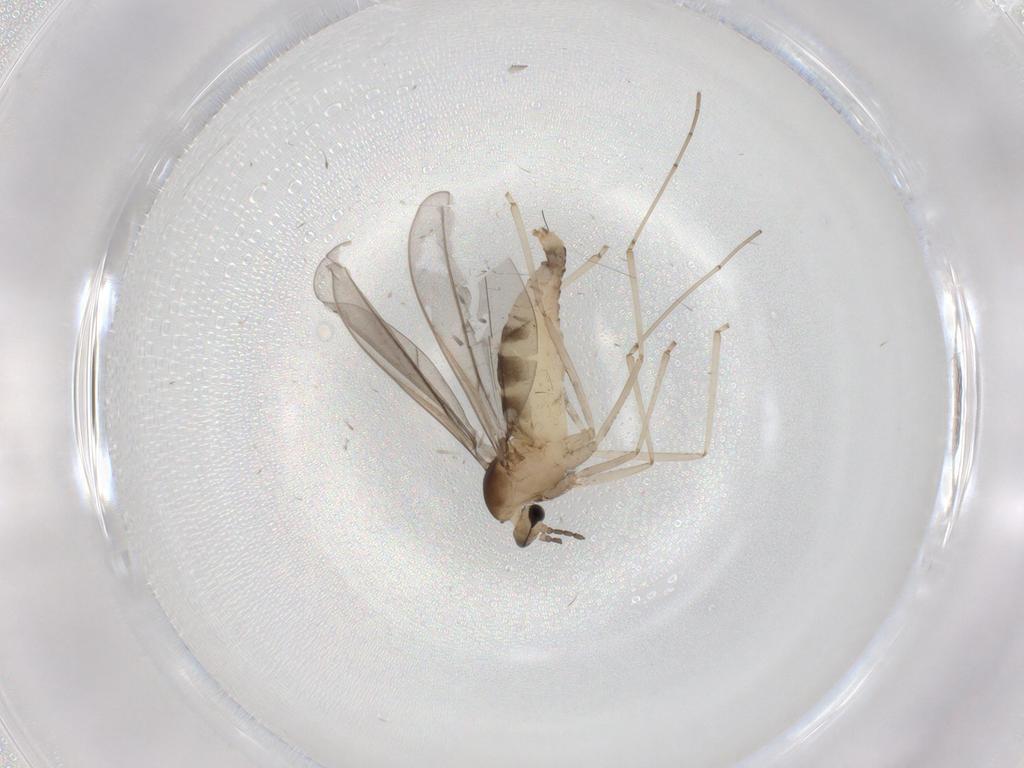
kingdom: Animalia
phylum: Arthropoda
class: Insecta
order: Diptera
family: Cecidomyiidae
